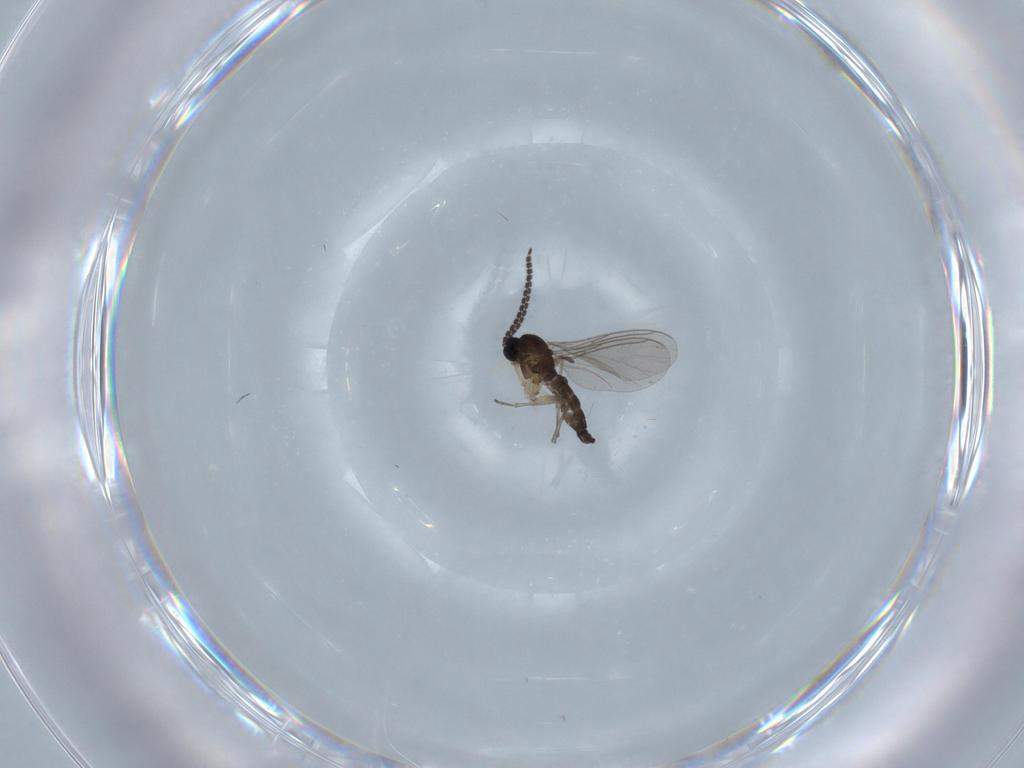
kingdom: Animalia
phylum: Arthropoda
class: Insecta
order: Diptera
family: Sciaridae
